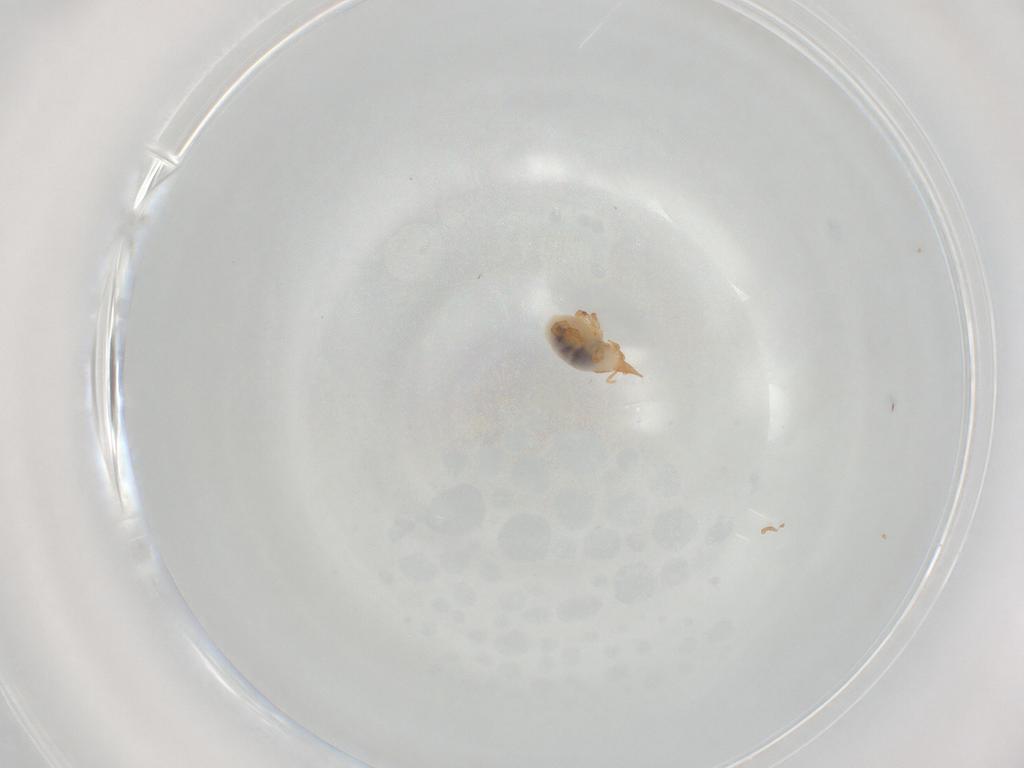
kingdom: Animalia
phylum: Arthropoda
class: Arachnida
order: Trombidiformes
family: Bdellidae
